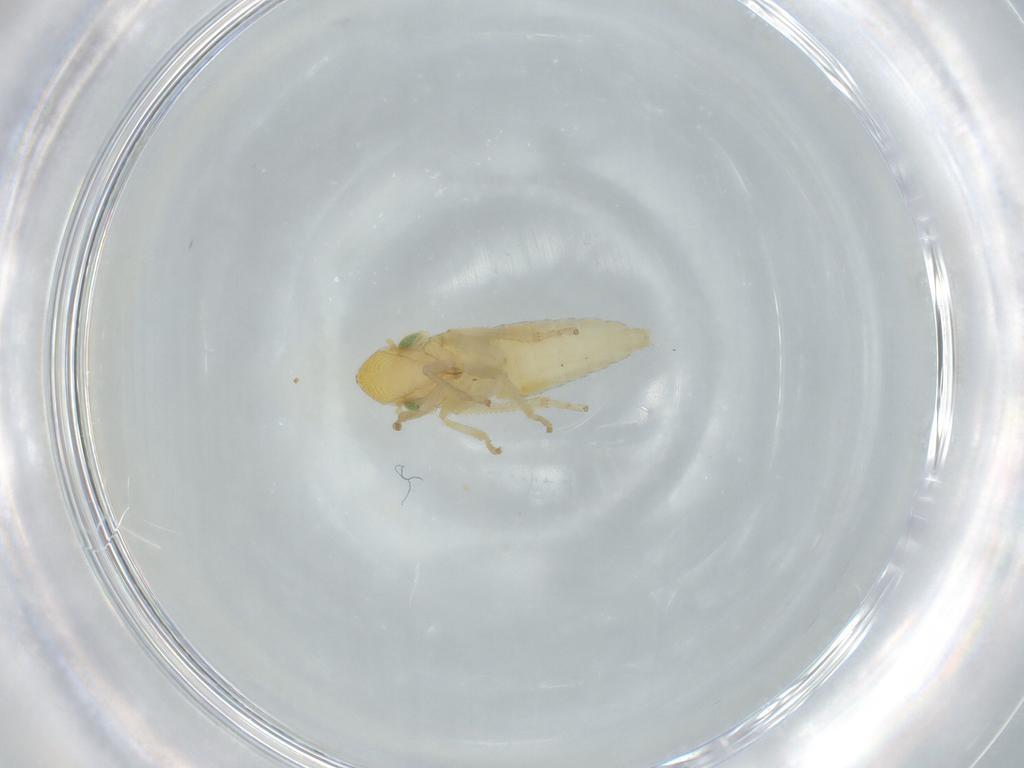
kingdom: Animalia
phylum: Arthropoda
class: Insecta
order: Hemiptera
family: Cicadellidae
